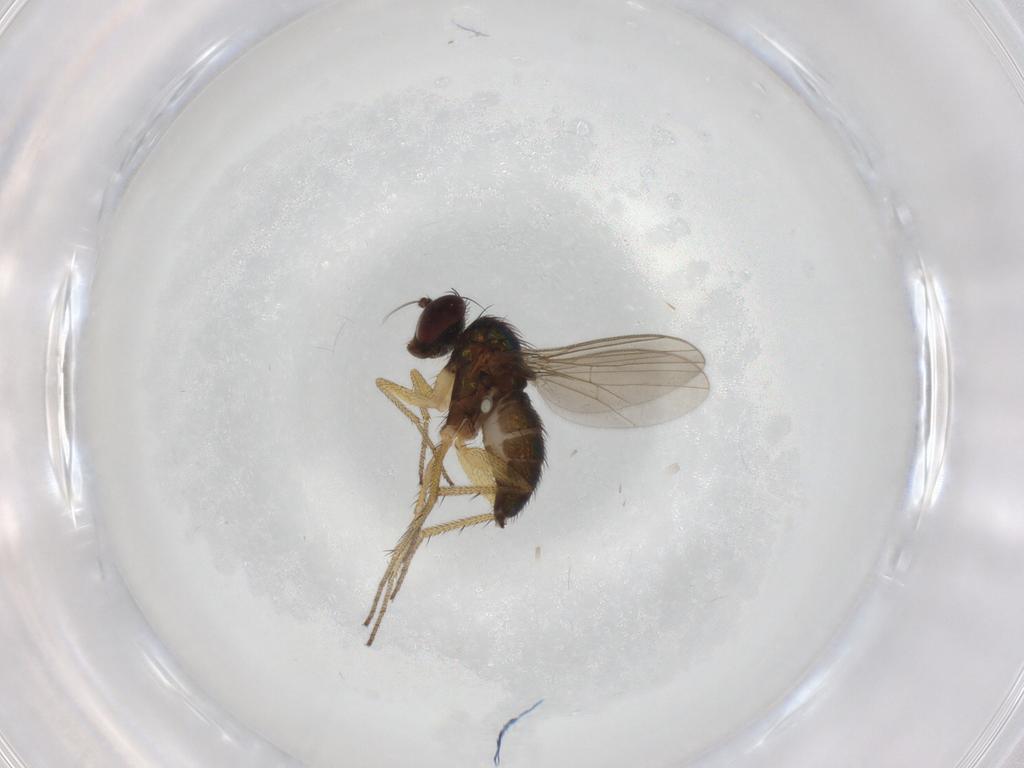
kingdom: Animalia
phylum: Arthropoda
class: Insecta
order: Diptera
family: Dolichopodidae
